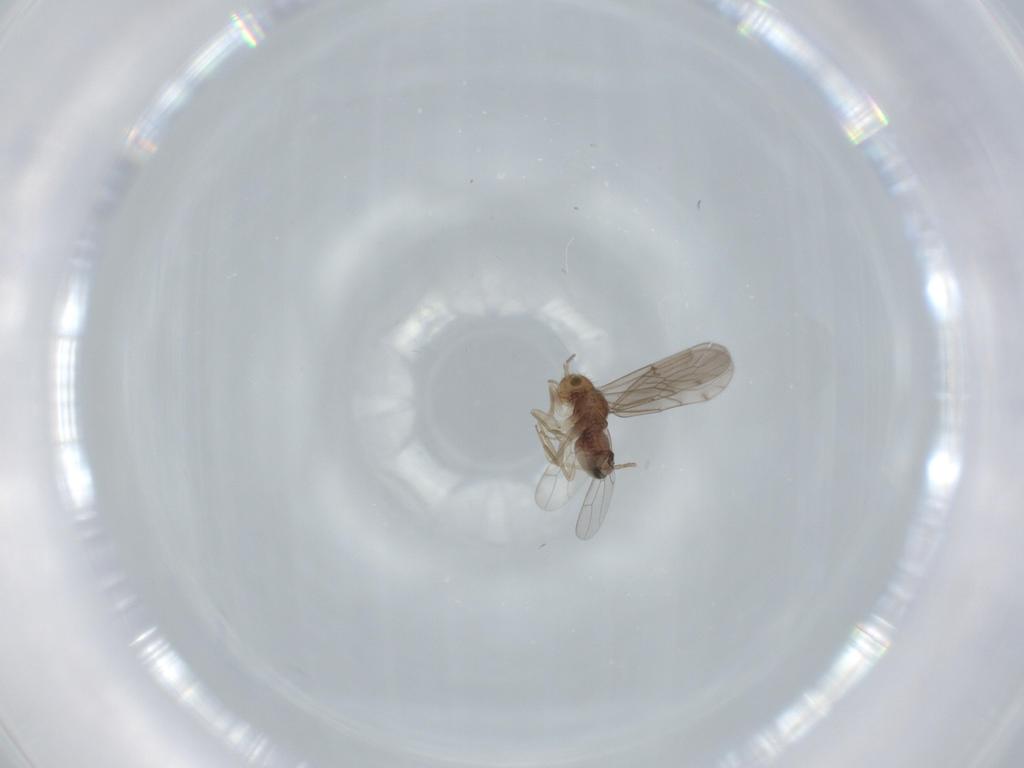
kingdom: Animalia
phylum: Arthropoda
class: Insecta
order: Psocodea
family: Ectopsocidae
